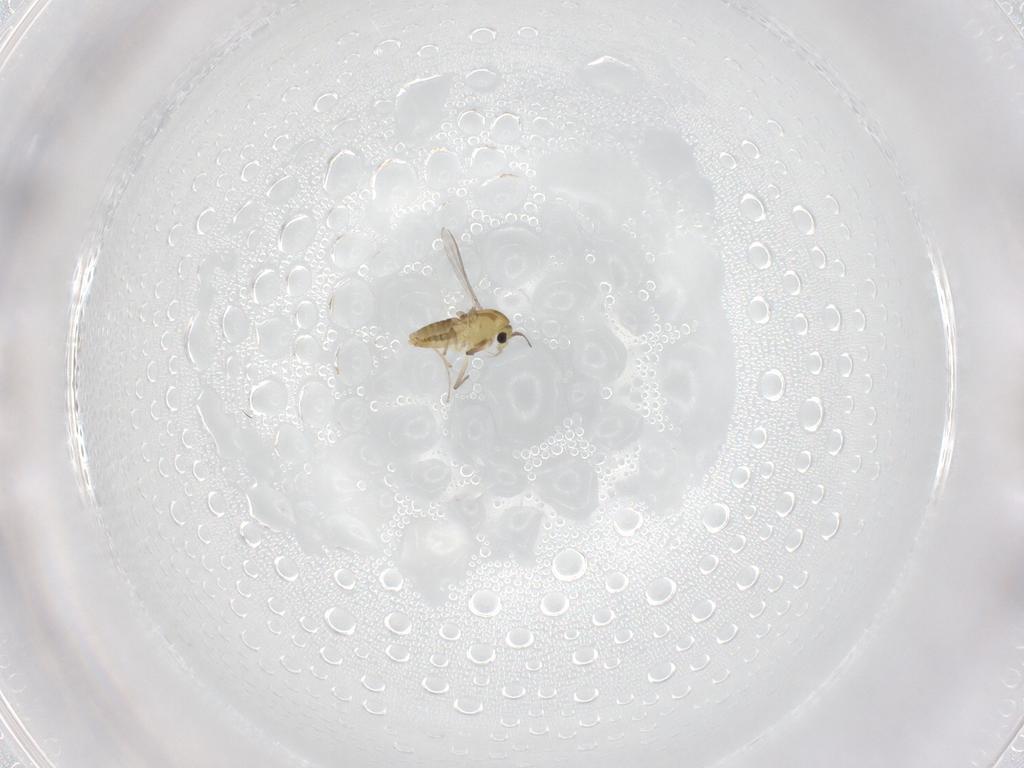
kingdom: Animalia
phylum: Arthropoda
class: Insecta
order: Diptera
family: Chironomidae
